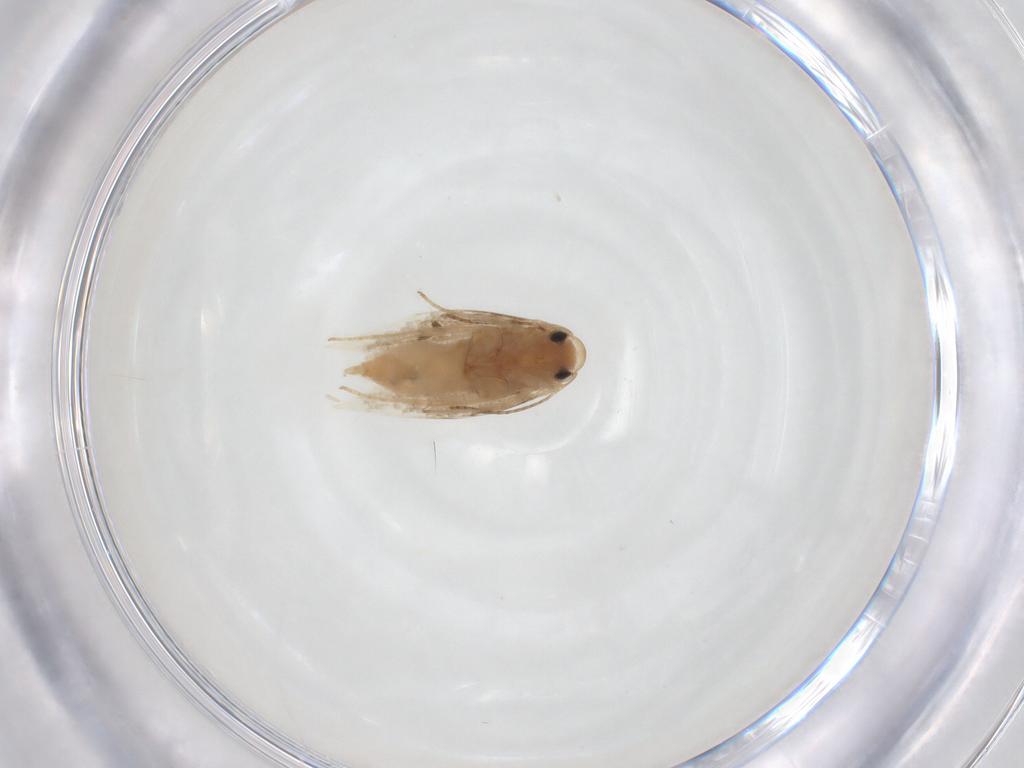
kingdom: Animalia
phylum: Arthropoda
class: Insecta
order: Lepidoptera
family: Lyonetiidae
